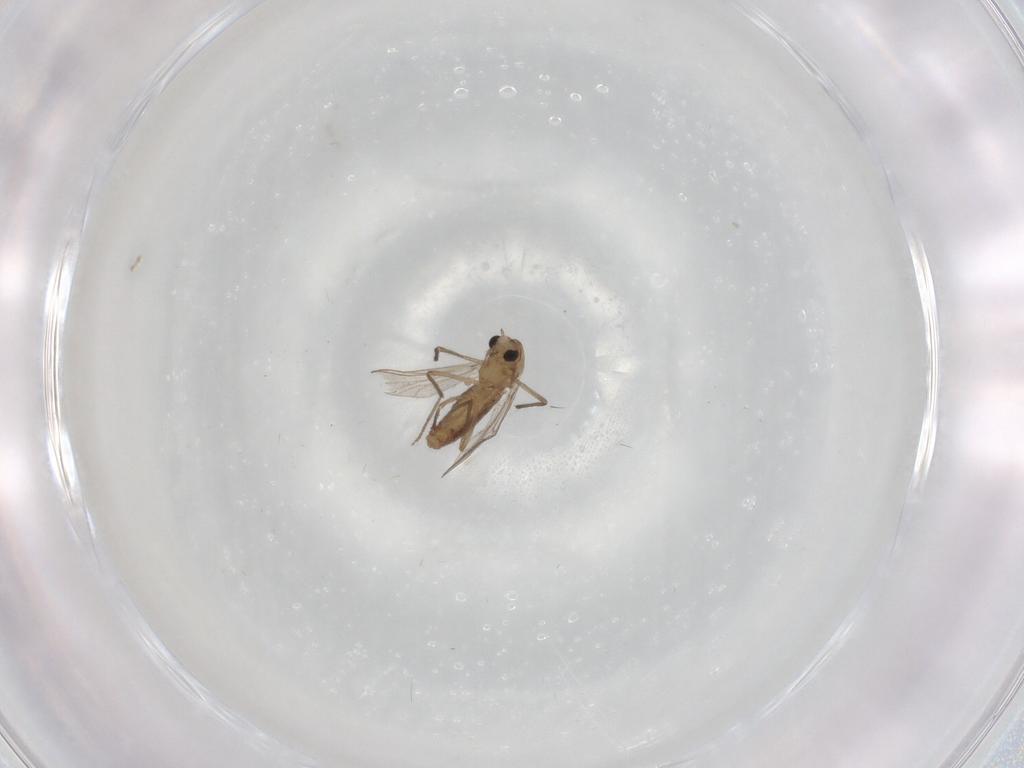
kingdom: Animalia
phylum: Arthropoda
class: Insecta
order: Diptera
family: Chironomidae
